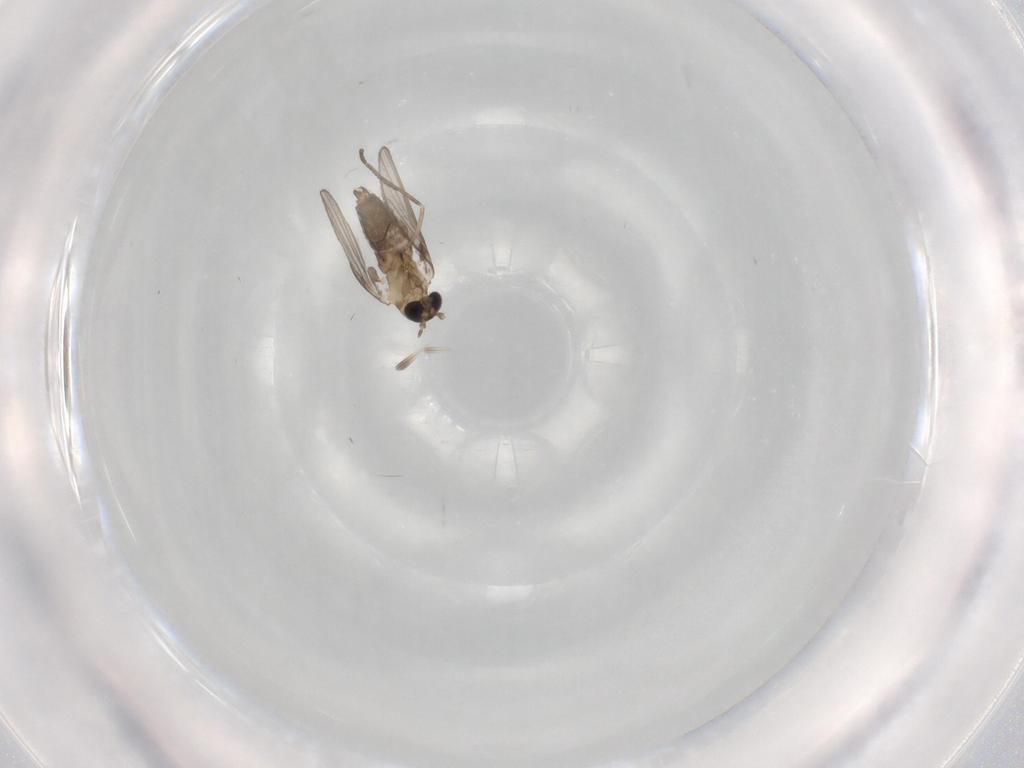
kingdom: Animalia
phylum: Arthropoda
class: Insecta
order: Diptera
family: Psychodidae
